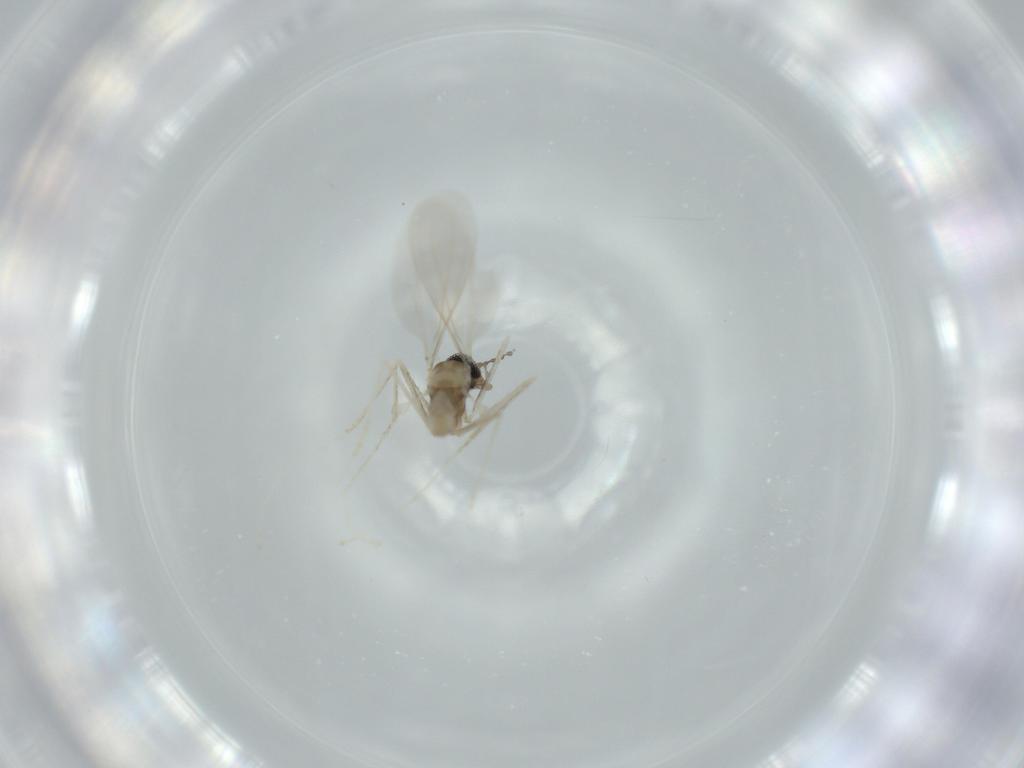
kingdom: Animalia
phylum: Arthropoda
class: Insecta
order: Diptera
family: Cecidomyiidae
